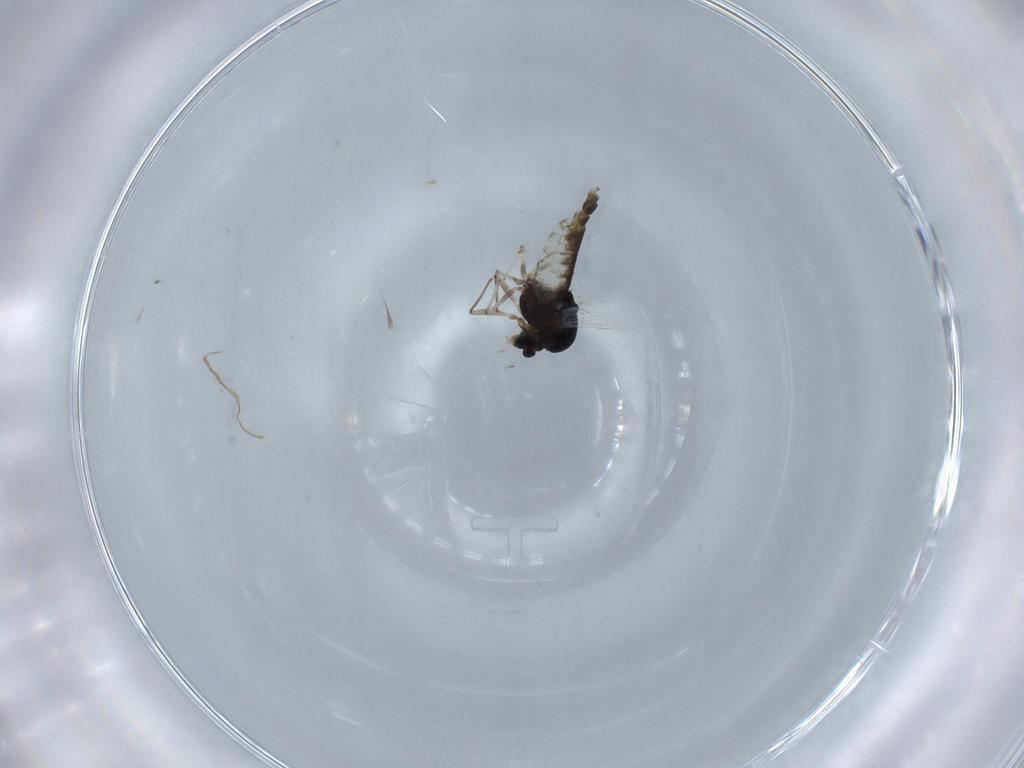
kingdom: Animalia
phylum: Arthropoda
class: Insecta
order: Diptera
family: Chironomidae
